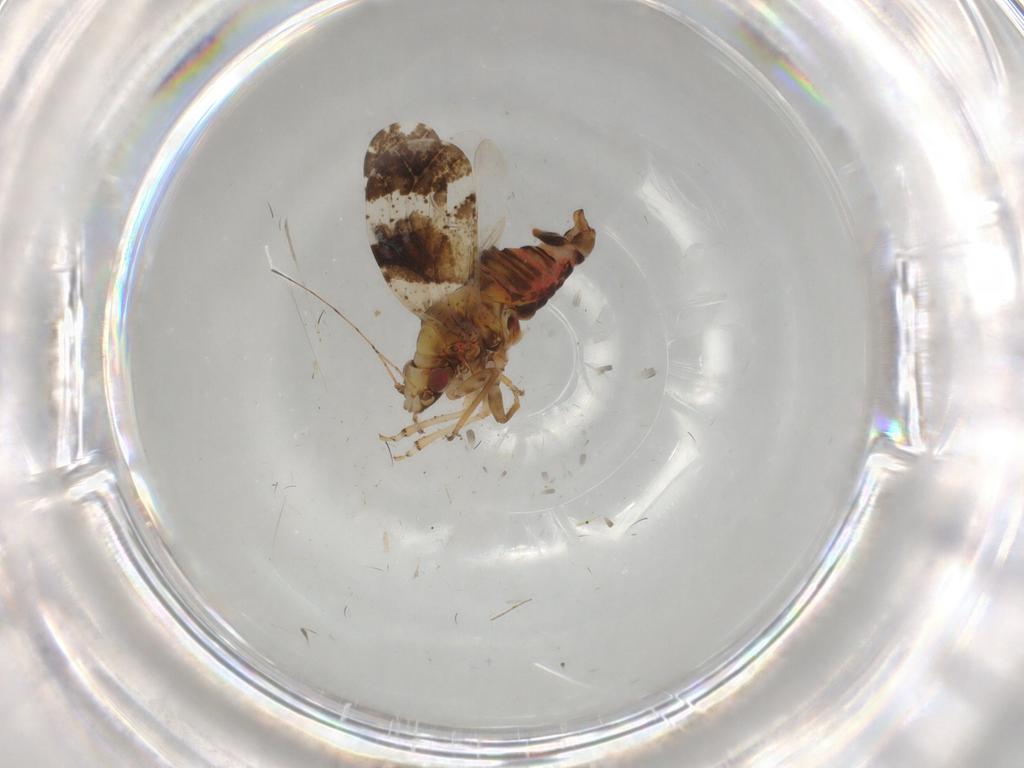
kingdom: Animalia
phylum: Arthropoda
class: Insecta
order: Hemiptera
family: Psyllidae
